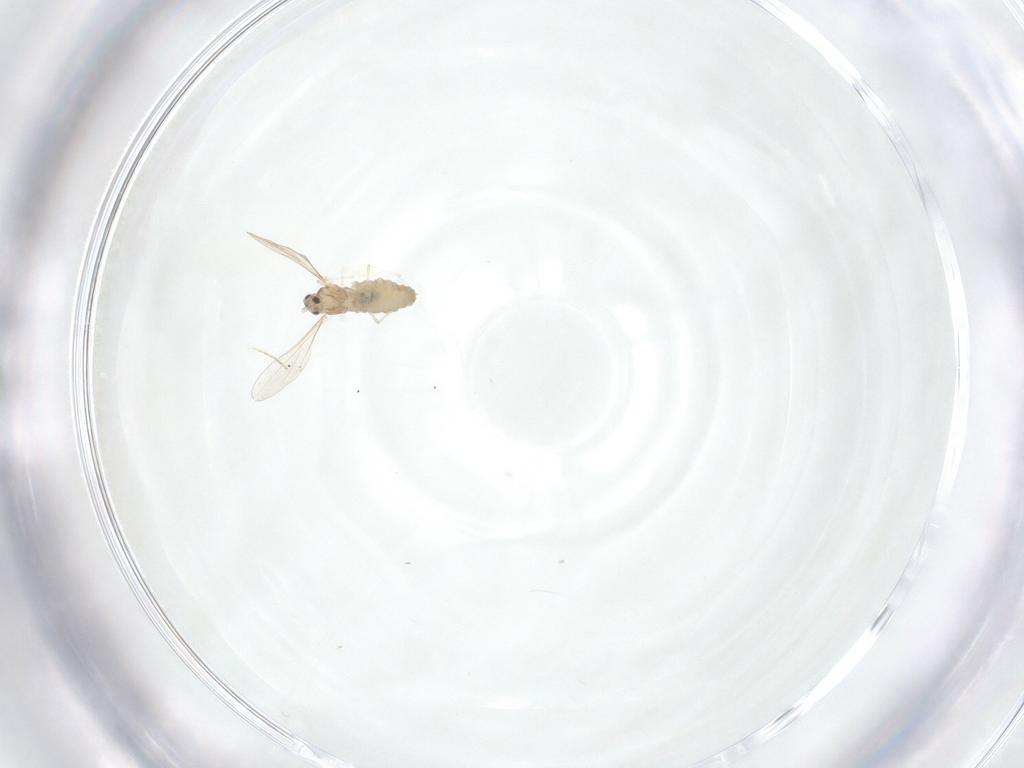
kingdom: Animalia
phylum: Arthropoda
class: Insecta
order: Diptera
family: Cecidomyiidae
